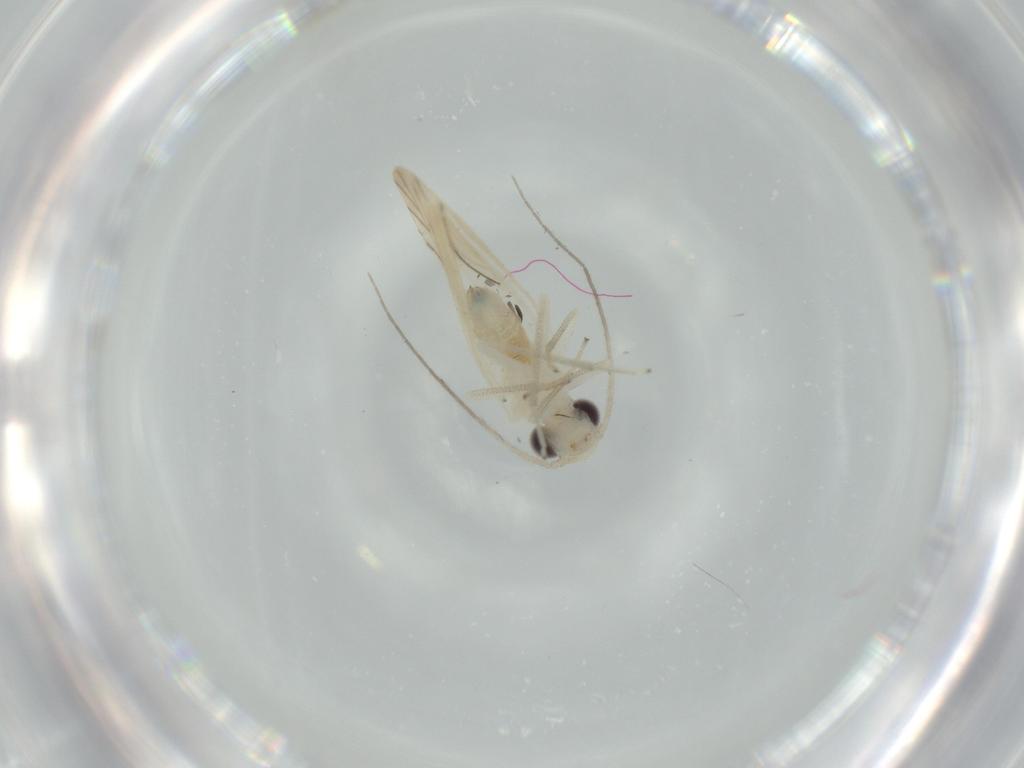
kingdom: Animalia
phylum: Arthropoda
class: Insecta
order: Psocodea
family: Caeciliusidae
